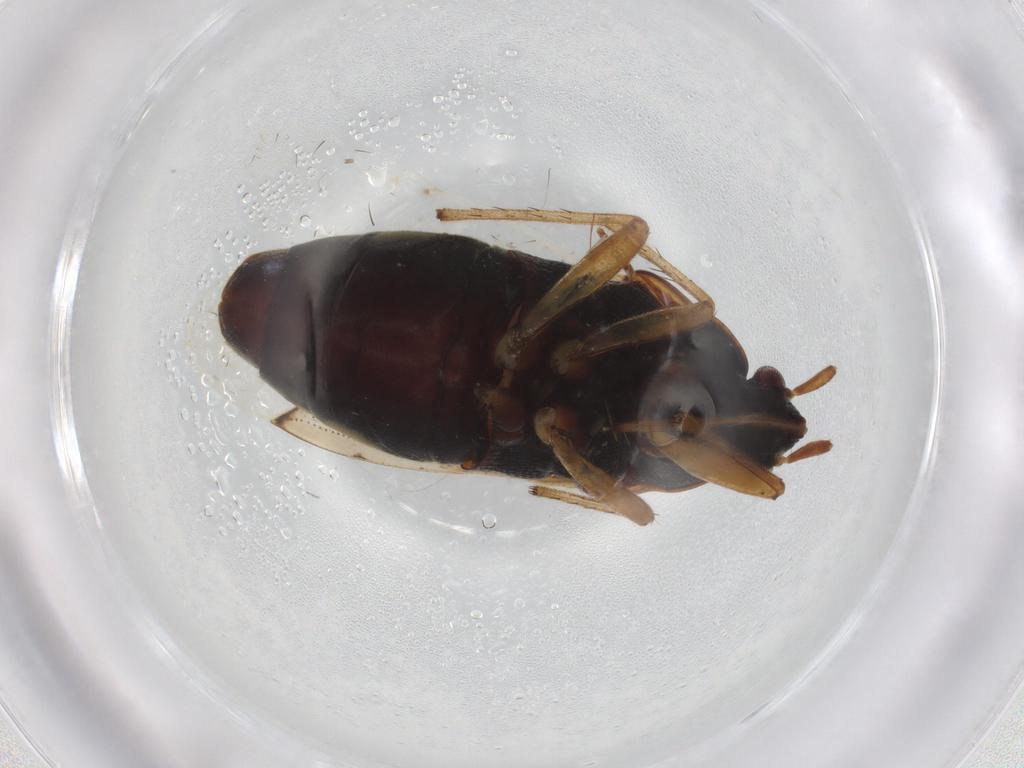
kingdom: Animalia
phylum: Arthropoda
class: Insecta
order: Hemiptera
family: Rhyparochromidae
